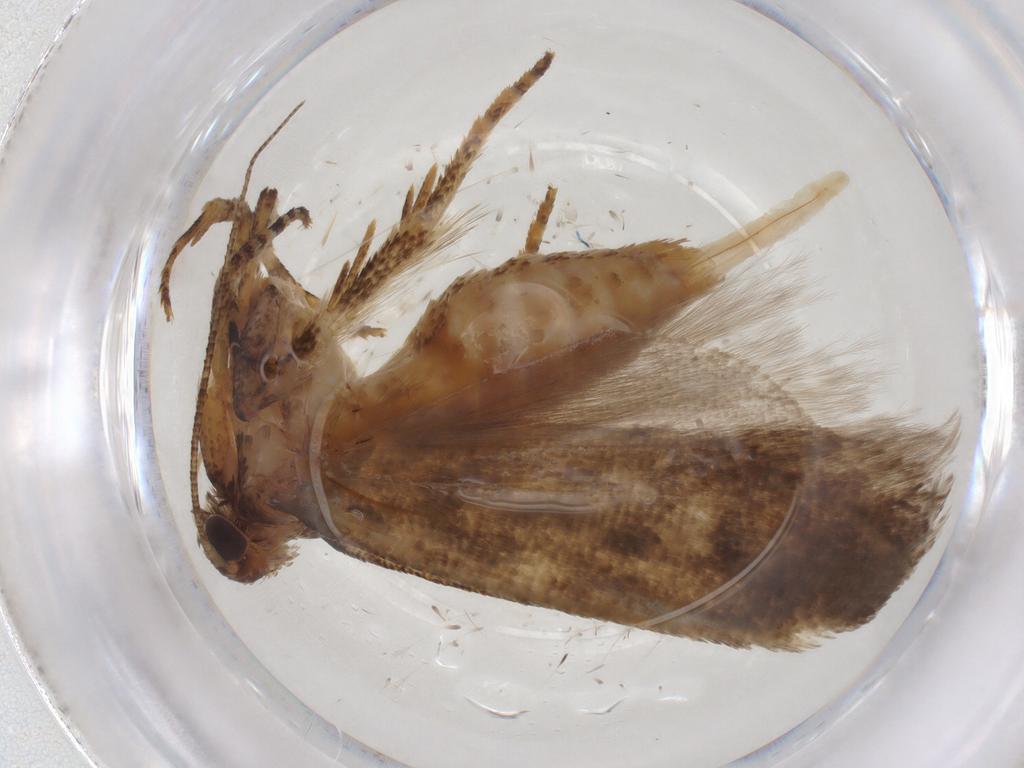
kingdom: Animalia
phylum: Arthropoda
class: Insecta
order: Lepidoptera
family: Gelechiidae
